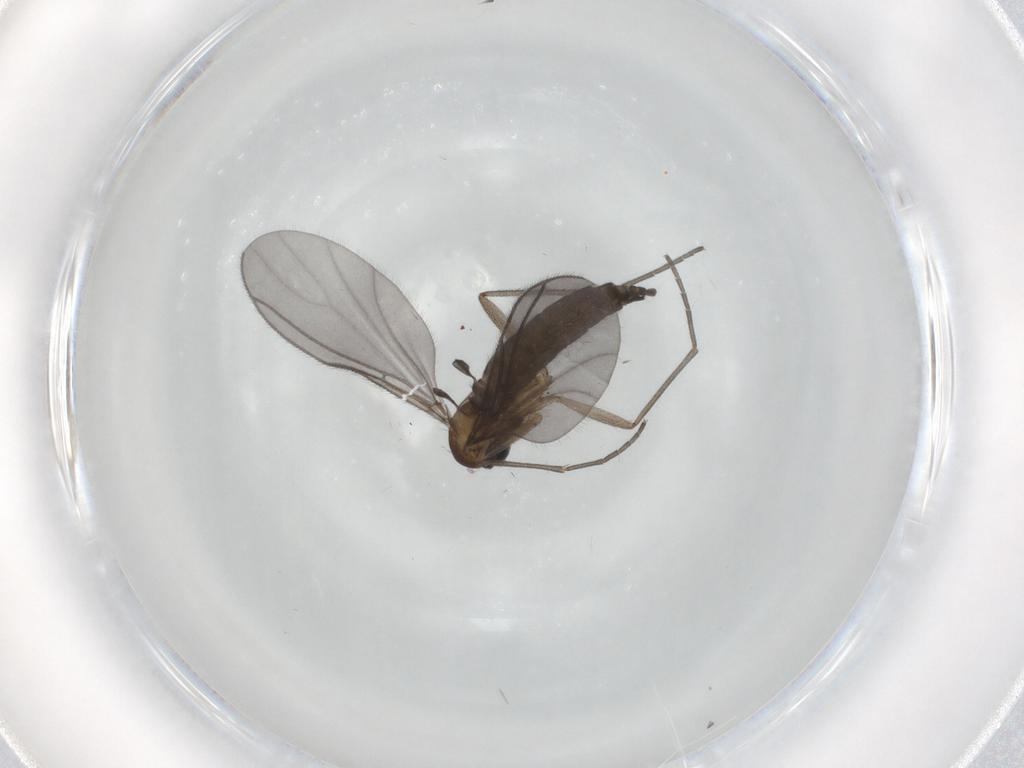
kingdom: Animalia
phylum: Arthropoda
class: Insecta
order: Diptera
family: Sciaridae
